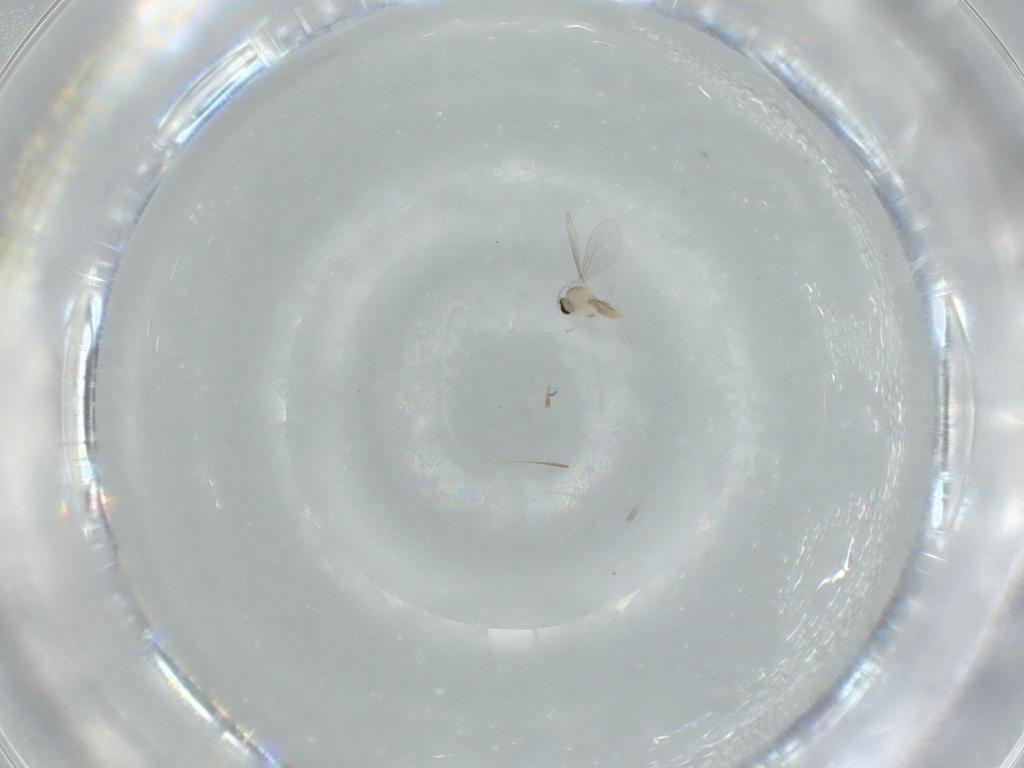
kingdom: Animalia
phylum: Arthropoda
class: Insecta
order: Diptera
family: Cecidomyiidae
